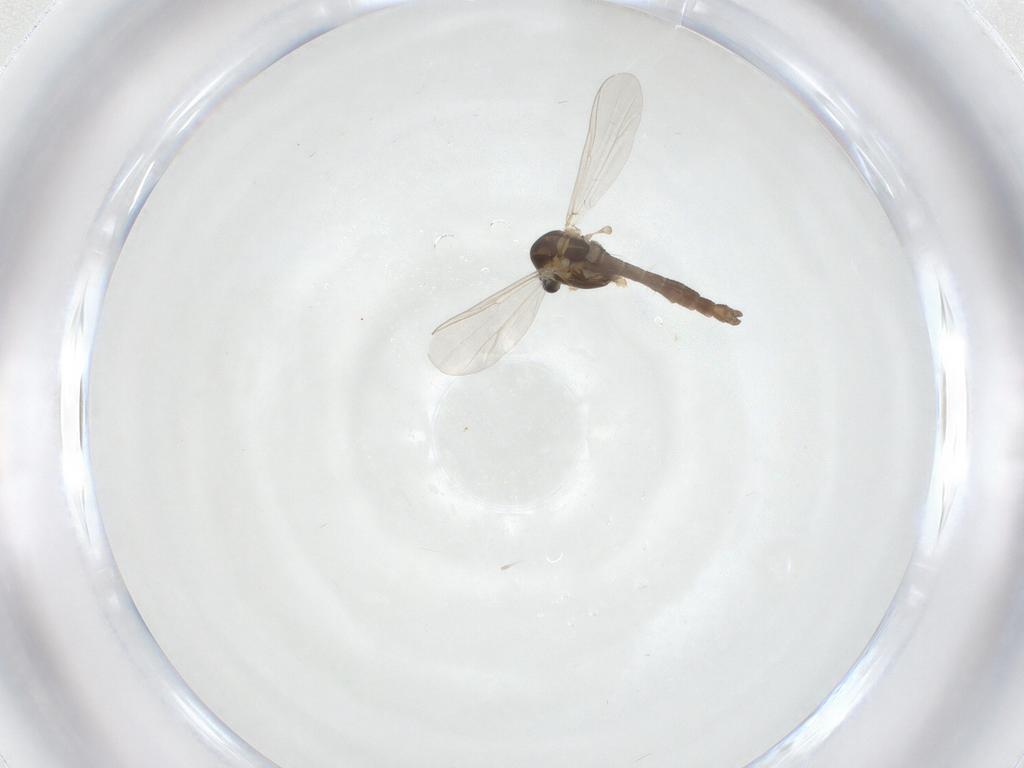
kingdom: Animalia
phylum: Arthropoda
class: Insecta
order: Diptera
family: Chironomidae
